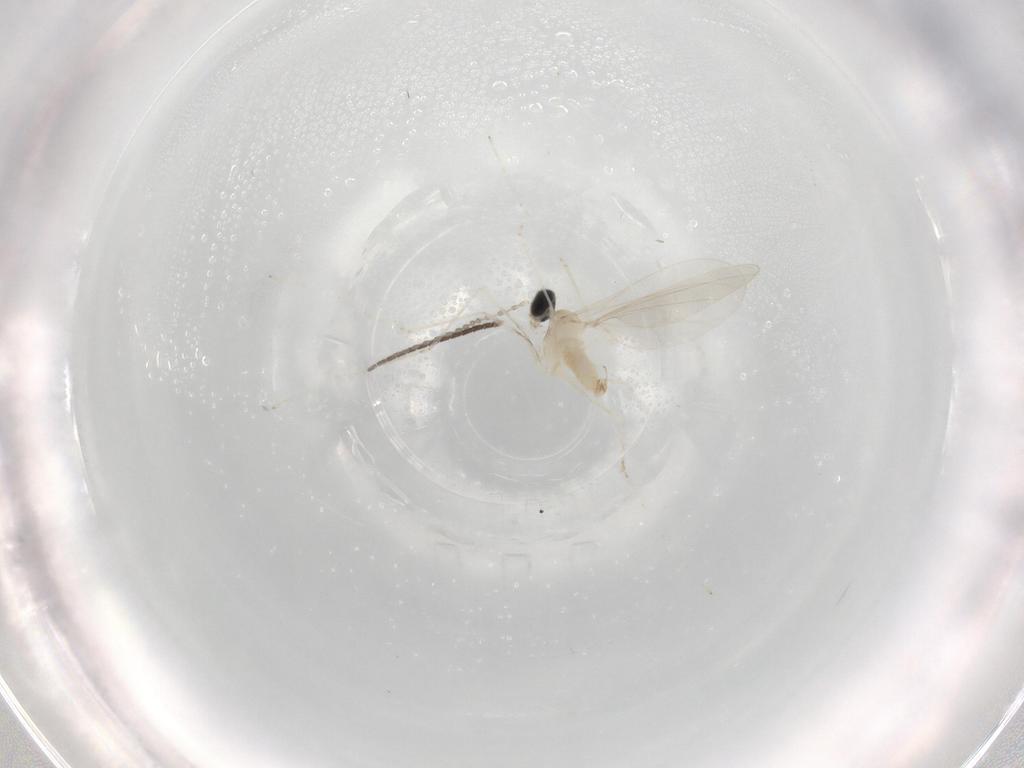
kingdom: Animalia
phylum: Arthropoda
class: Insecta
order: Diptera
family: Cecidomyiidae
